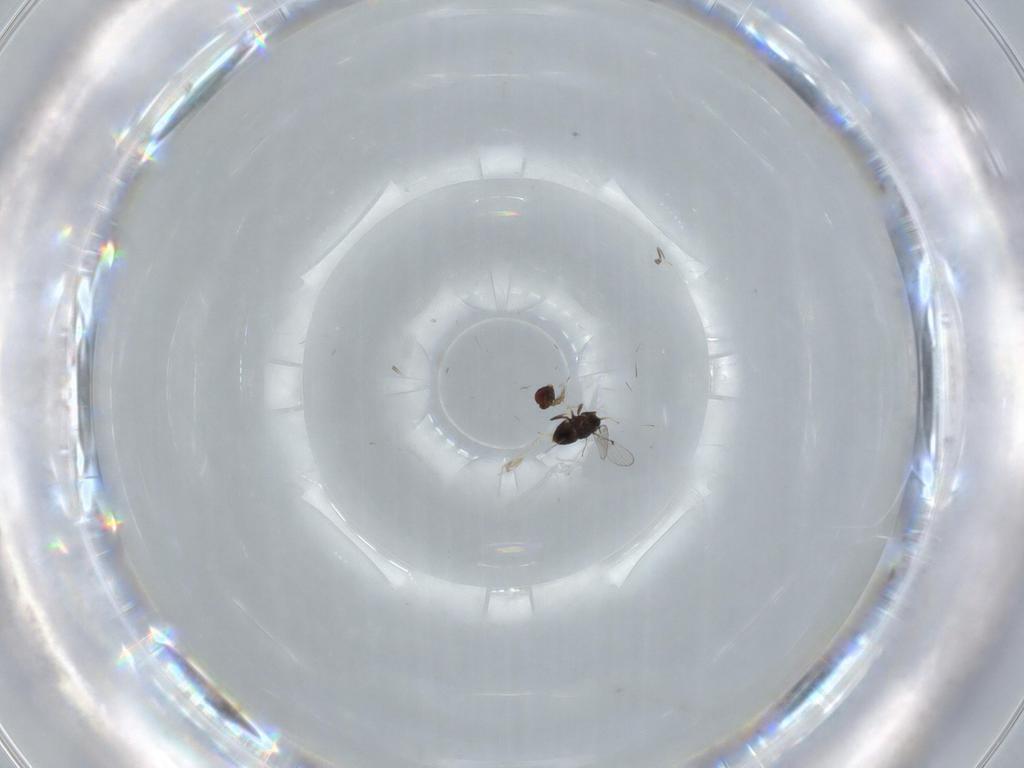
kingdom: Animalia
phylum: Arthropoda
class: Insecta
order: Hymenoptera
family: Trichogrammatidae
